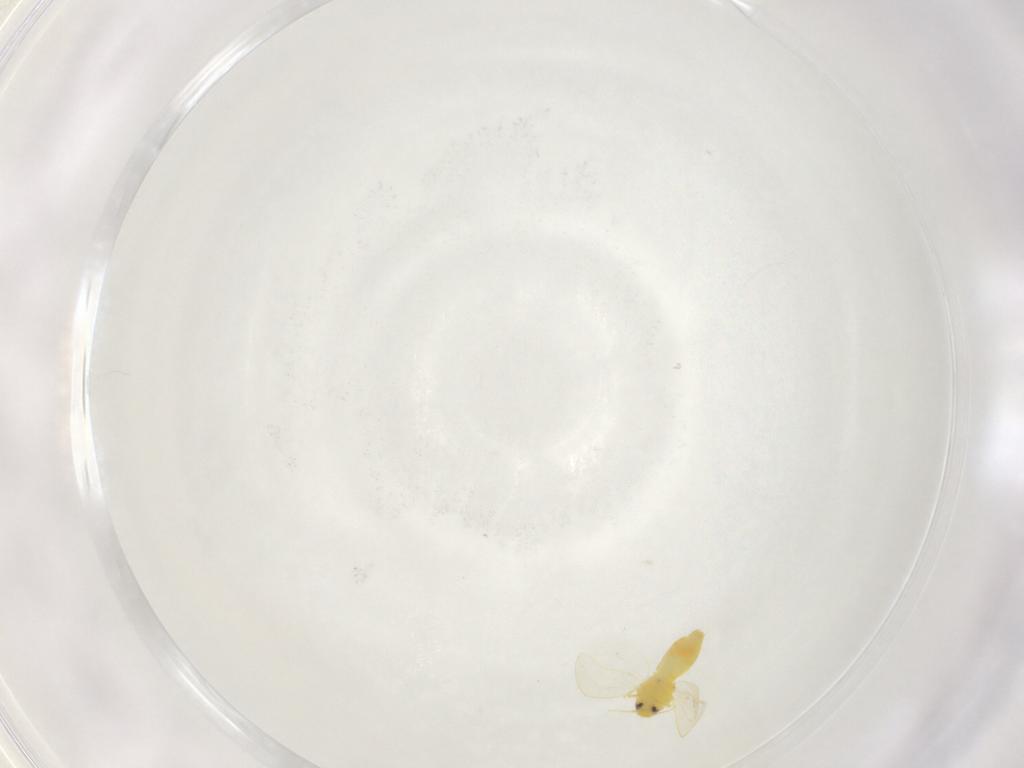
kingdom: Animalia
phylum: Arthropoda
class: Insecta
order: Hemiptera
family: Miridae
